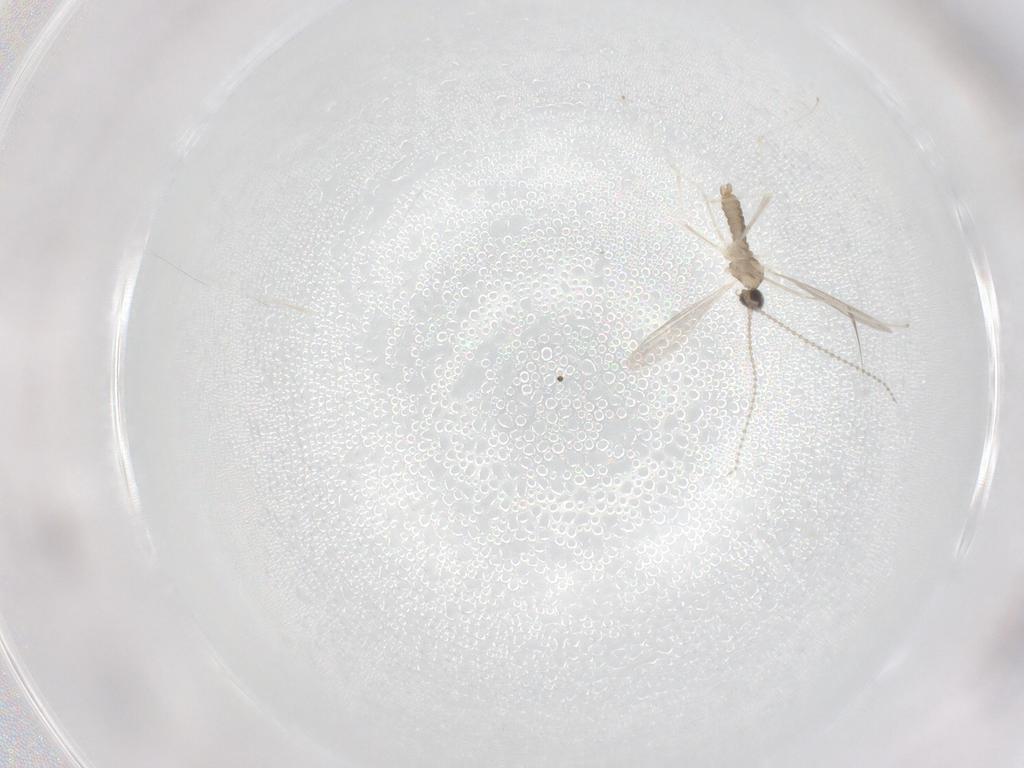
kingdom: Animalia
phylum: Arthropoda
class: Insecta
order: Diptera
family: Cecidomyiidae
